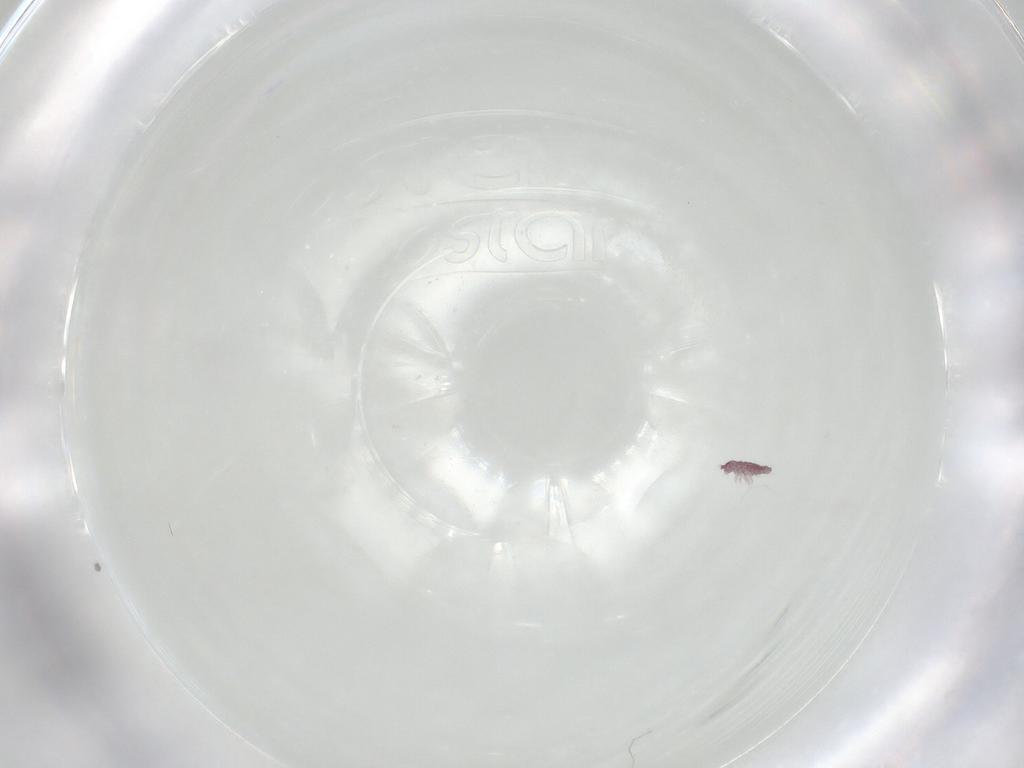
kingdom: Animalia
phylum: Arthropoda
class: Collembola
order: Poduromorpha
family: Hypogastruridae
